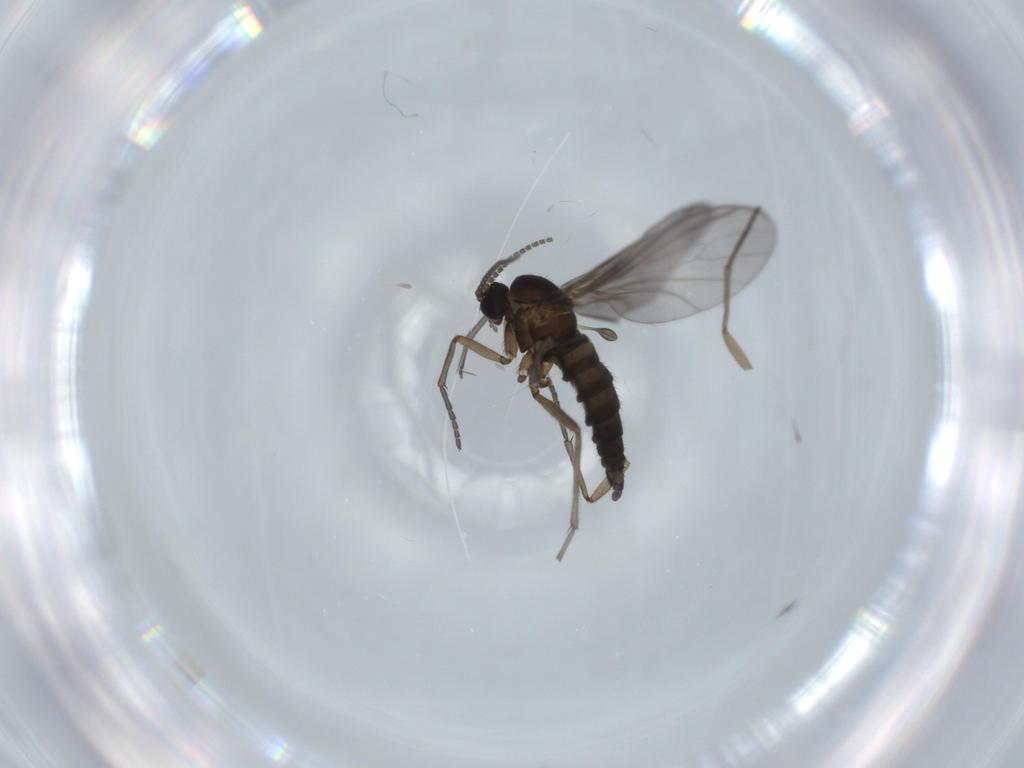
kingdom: Animalia
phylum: Arthropoda
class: Insecta
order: Diptera
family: Sciaridae
